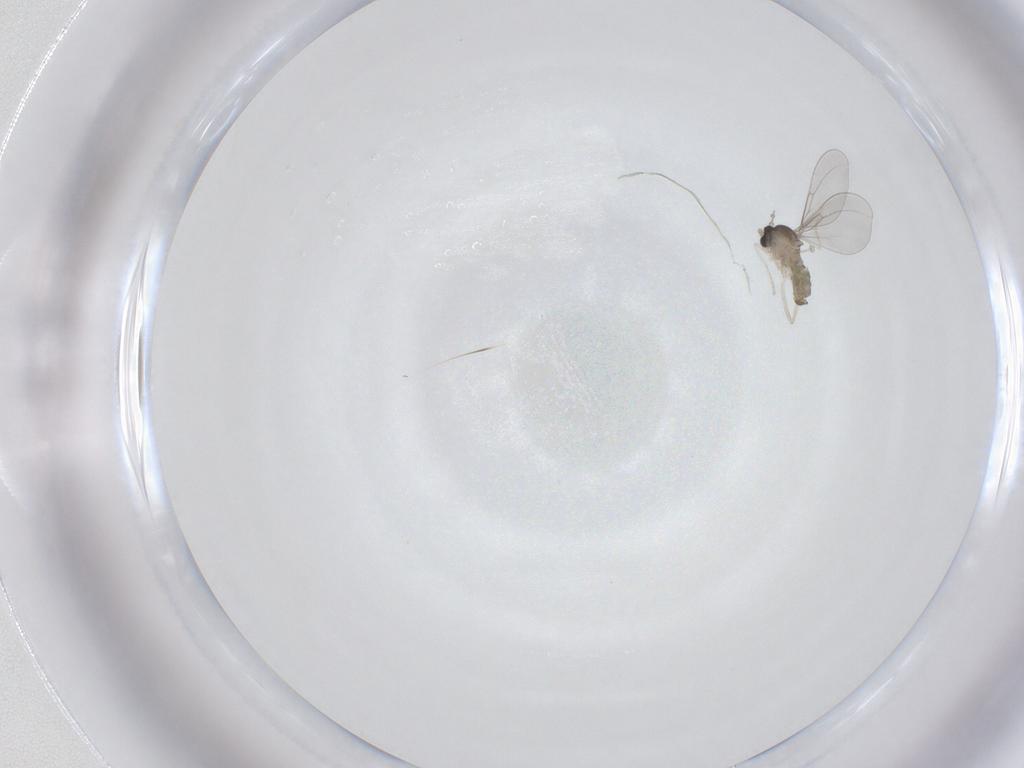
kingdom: Animalia
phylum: Arthropoda
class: Insecta
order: Diptera
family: Cecidomyiidae
